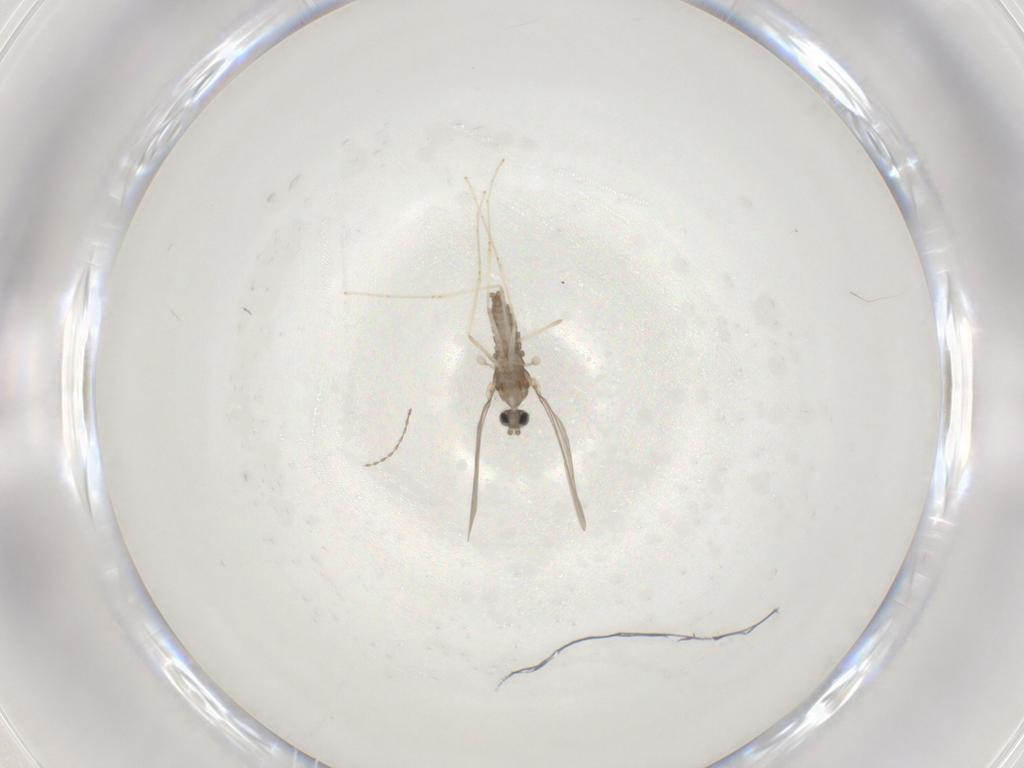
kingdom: Animalia
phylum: Arthropoda
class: Insecta
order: Diptera
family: Cecidomyiidae
